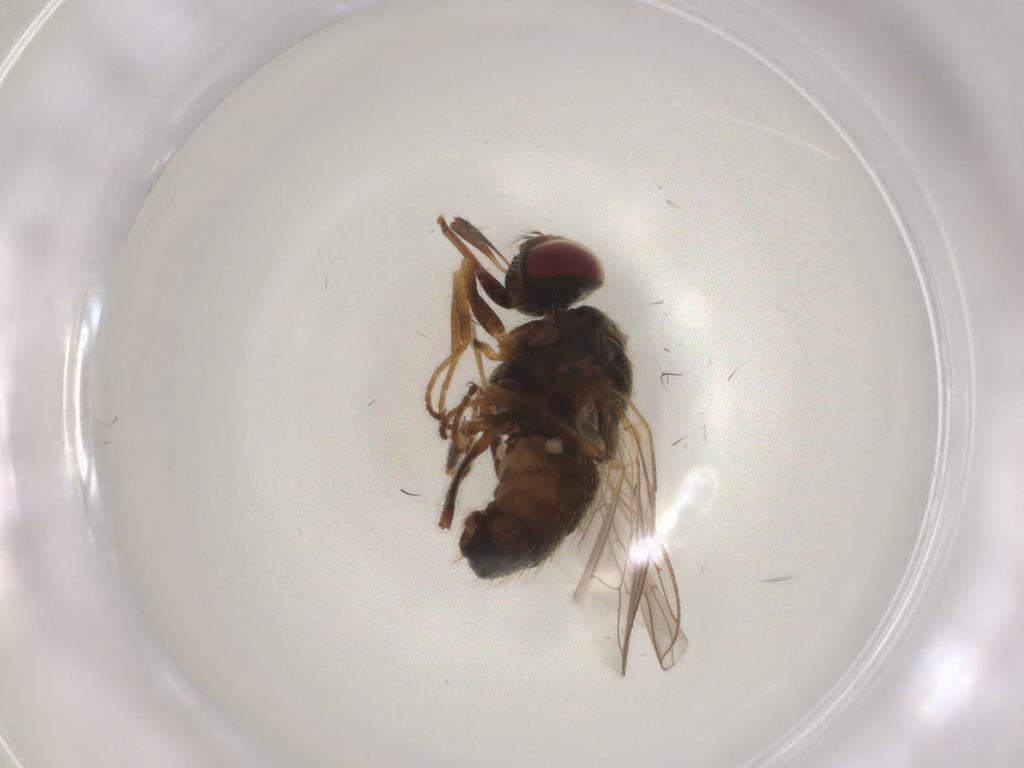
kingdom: Animalia
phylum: Arthropoda
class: Insecta
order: Diptera
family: Muscidae
